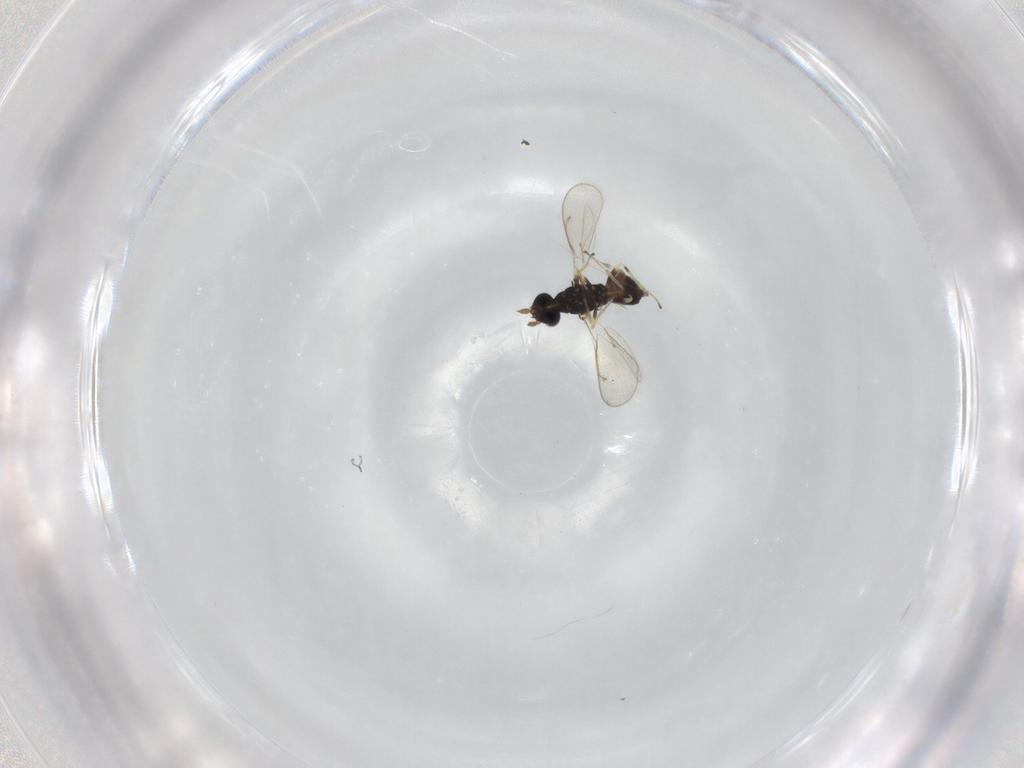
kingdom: Animalia
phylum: Arthropoda
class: Insecta
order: Hymenoptera
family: Eulophidae
